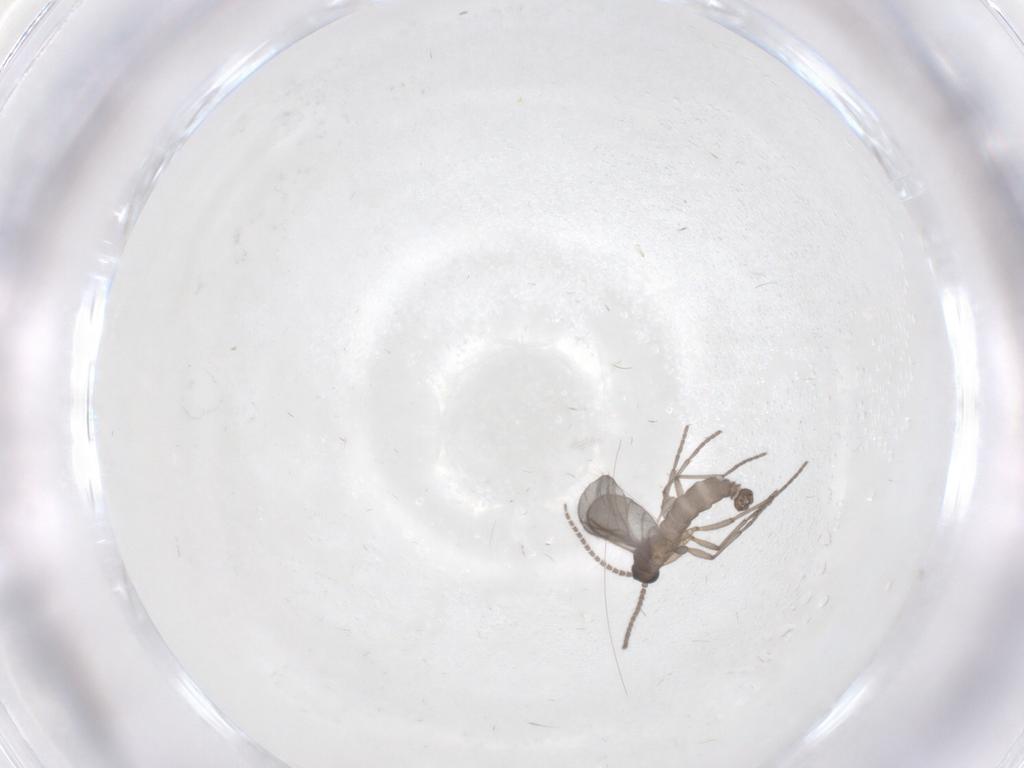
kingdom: Animalia
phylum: Arthropoda
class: Insecta
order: Diptera
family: Sciaridae
